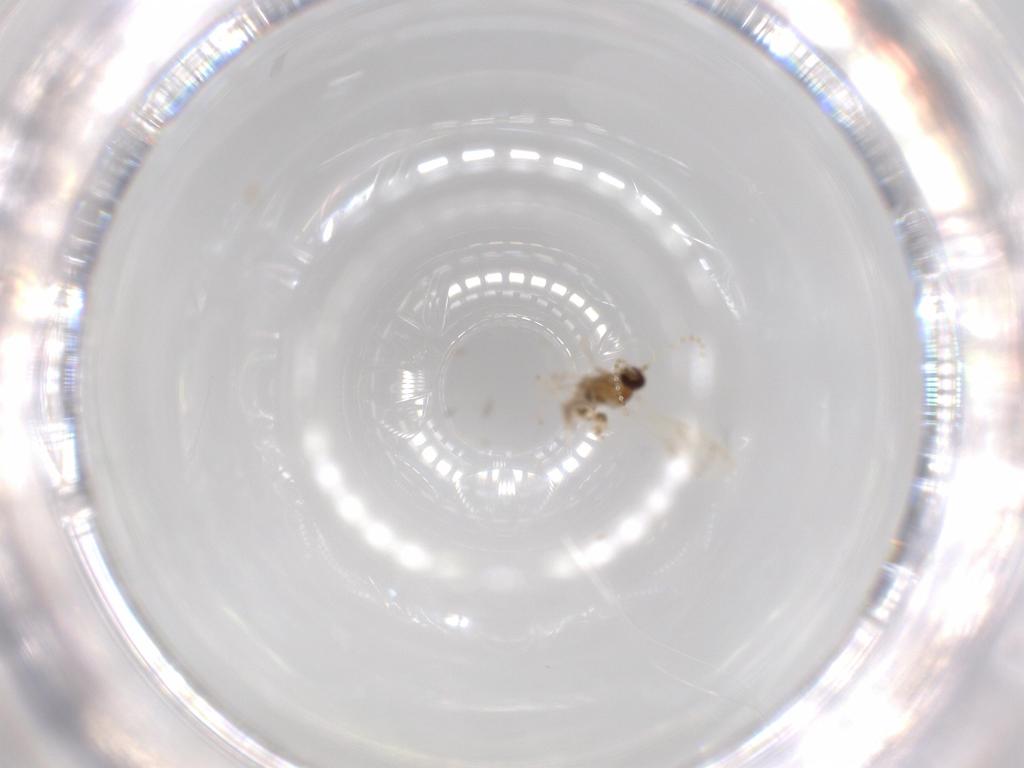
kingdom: Animalia
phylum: Arthropoda
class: Insecta
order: Diptera
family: Cecidomyiidae
